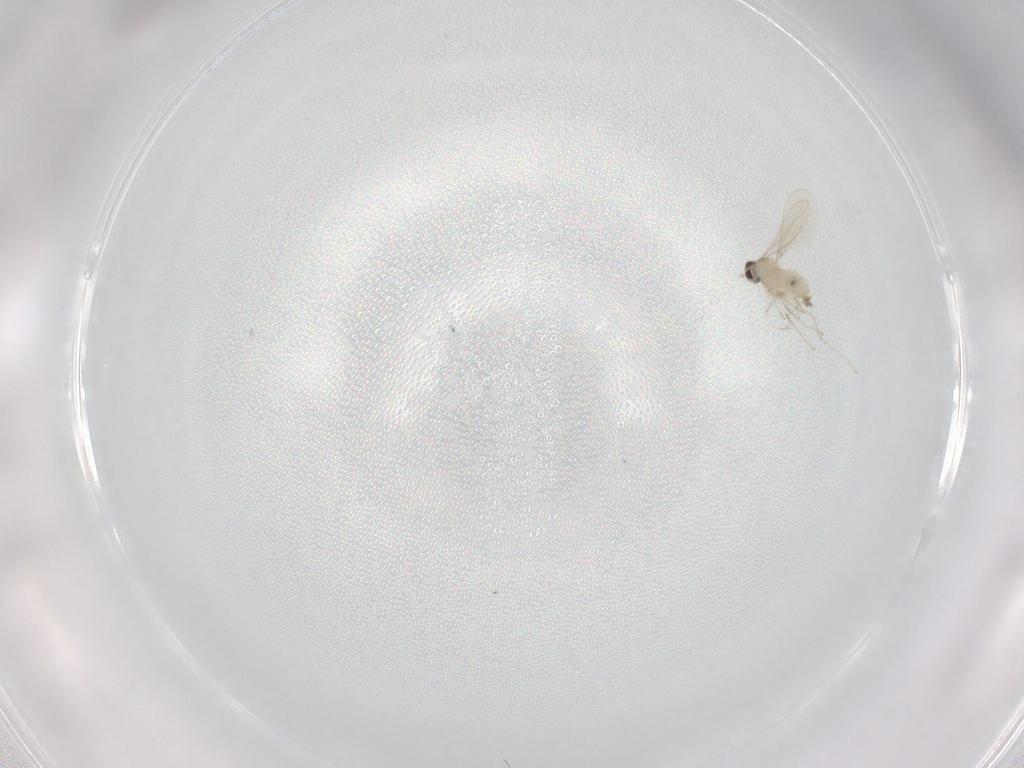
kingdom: Animalia
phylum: Arthropoda
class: Insecta
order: Diptera
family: Cecidomyiidae
